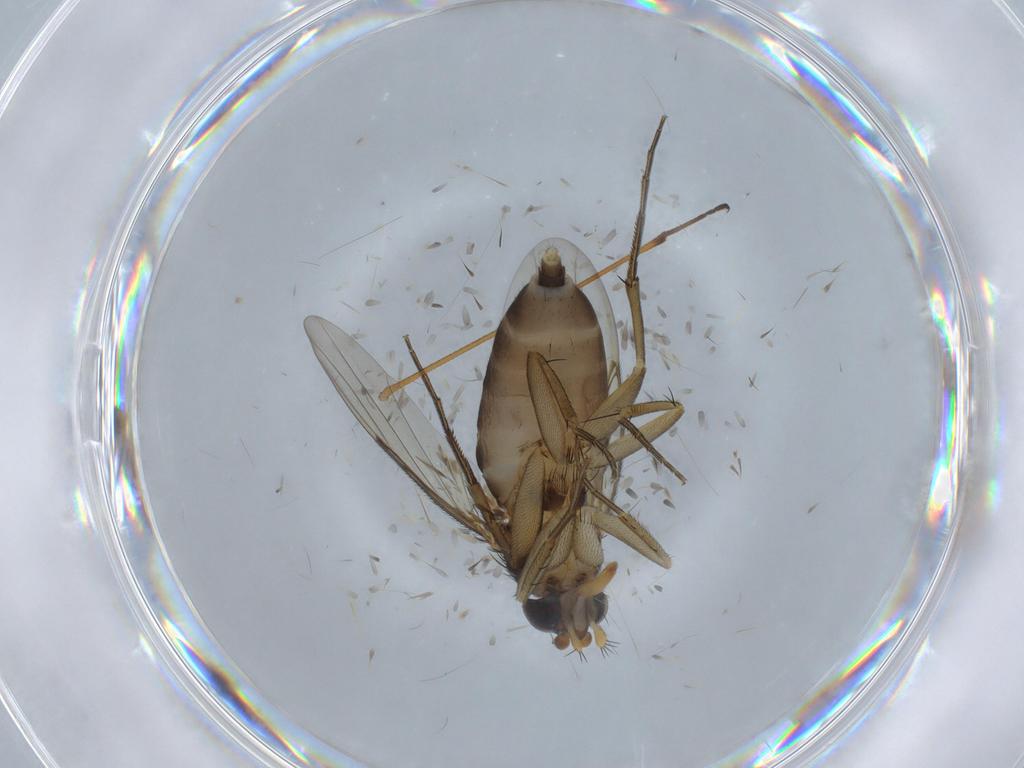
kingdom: Animalia
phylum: Arthropoda
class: Insecta
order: Diptera
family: Phoridae
